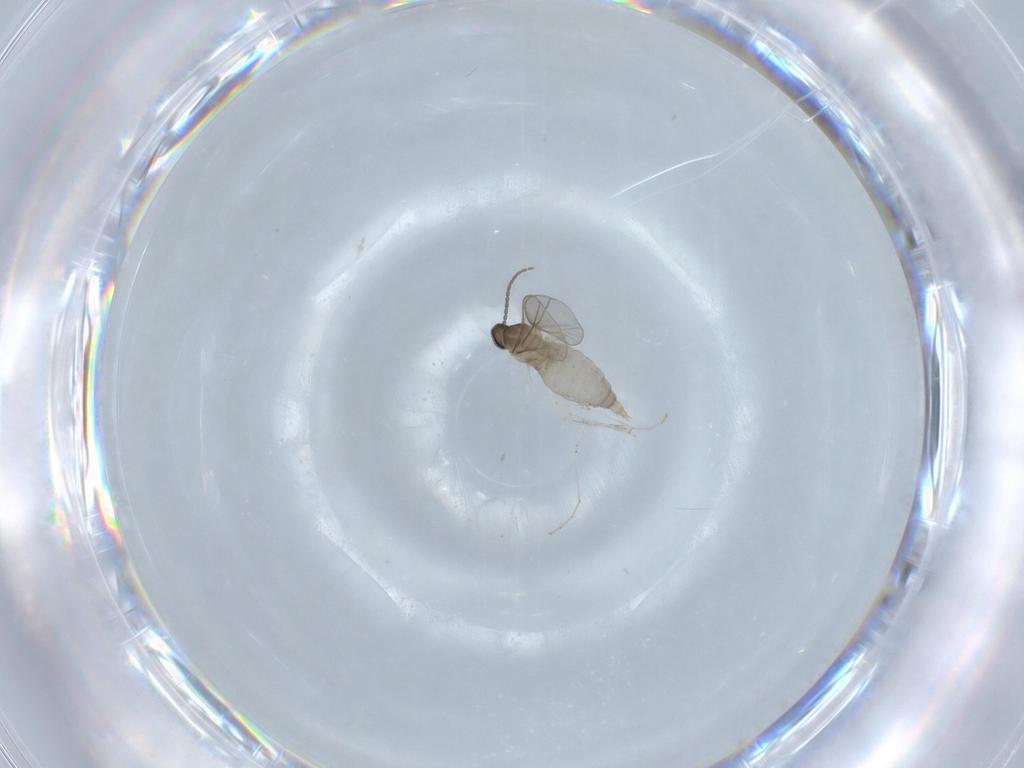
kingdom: Animalia
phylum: Arthropoda
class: Insecta
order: Diptera
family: Cecidomyiidae
